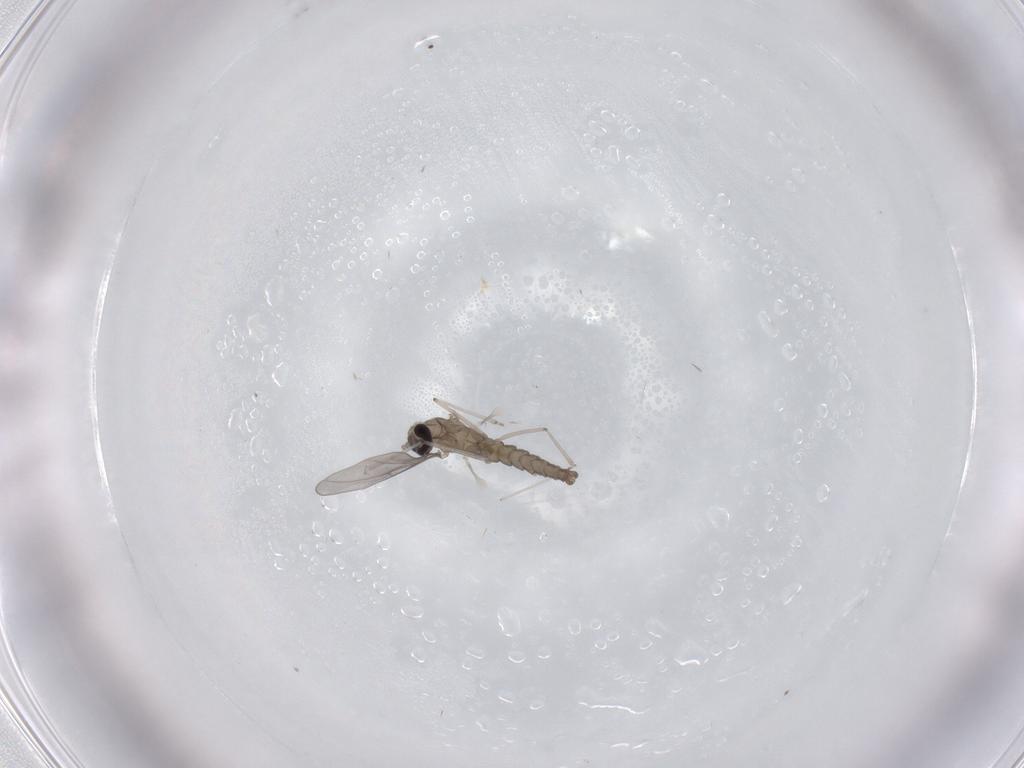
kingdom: Animalia
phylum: Arthropoda
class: Insecta
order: Diptera
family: Cecidomyiidae
